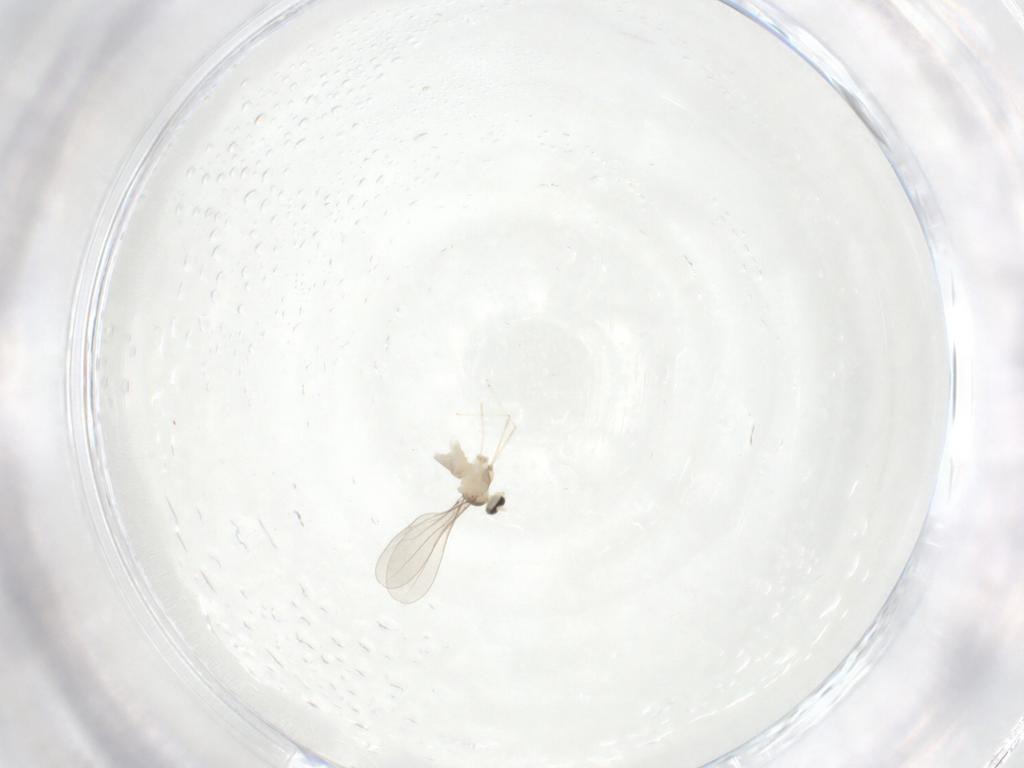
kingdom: Animalia
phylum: Arthropoda
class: Insecta
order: Diptera
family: Cecidomyiidae
